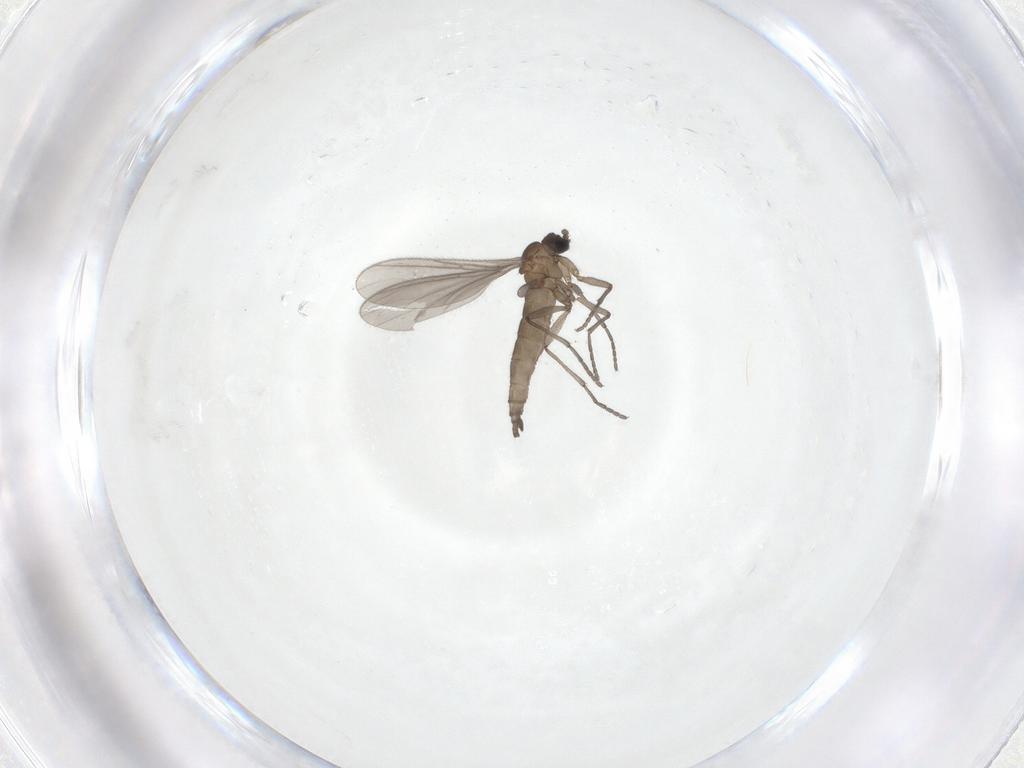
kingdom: Animalia
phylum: Arthropoda
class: Insecta
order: Diptera
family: Sciaridae
